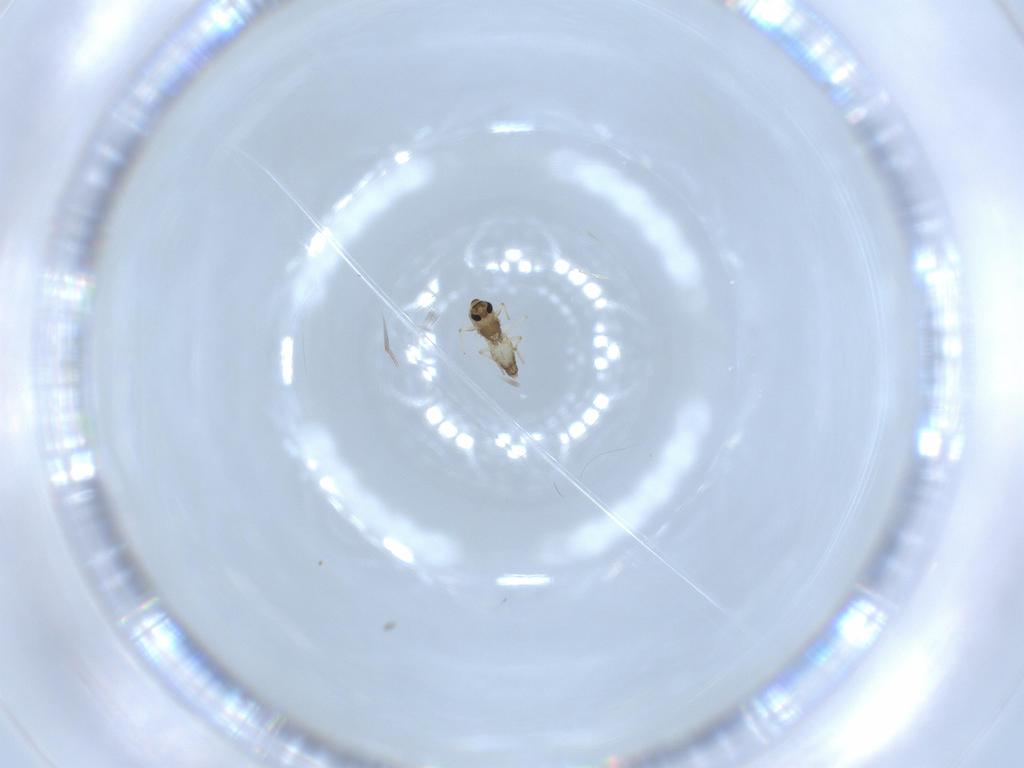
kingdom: Animalia
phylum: Arthropoda
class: Insecta
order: Diptera
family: Chironomidae
